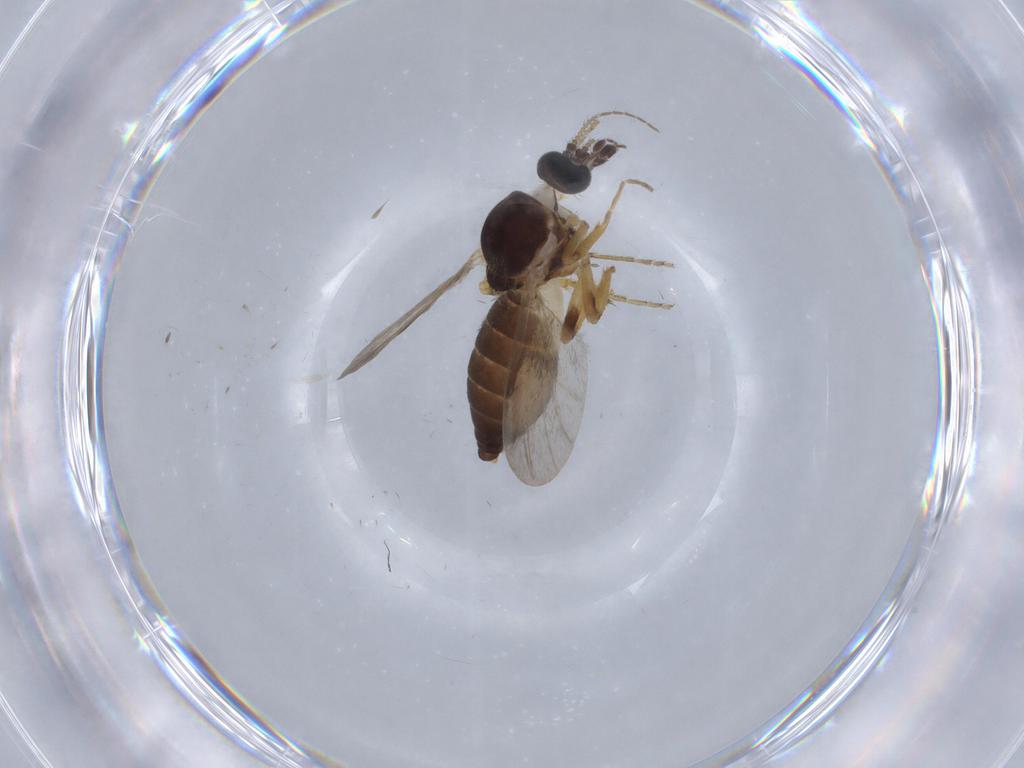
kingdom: Animalia
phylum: Arthropoda
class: Insecta
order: Diptera
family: Ceratopogonidae
